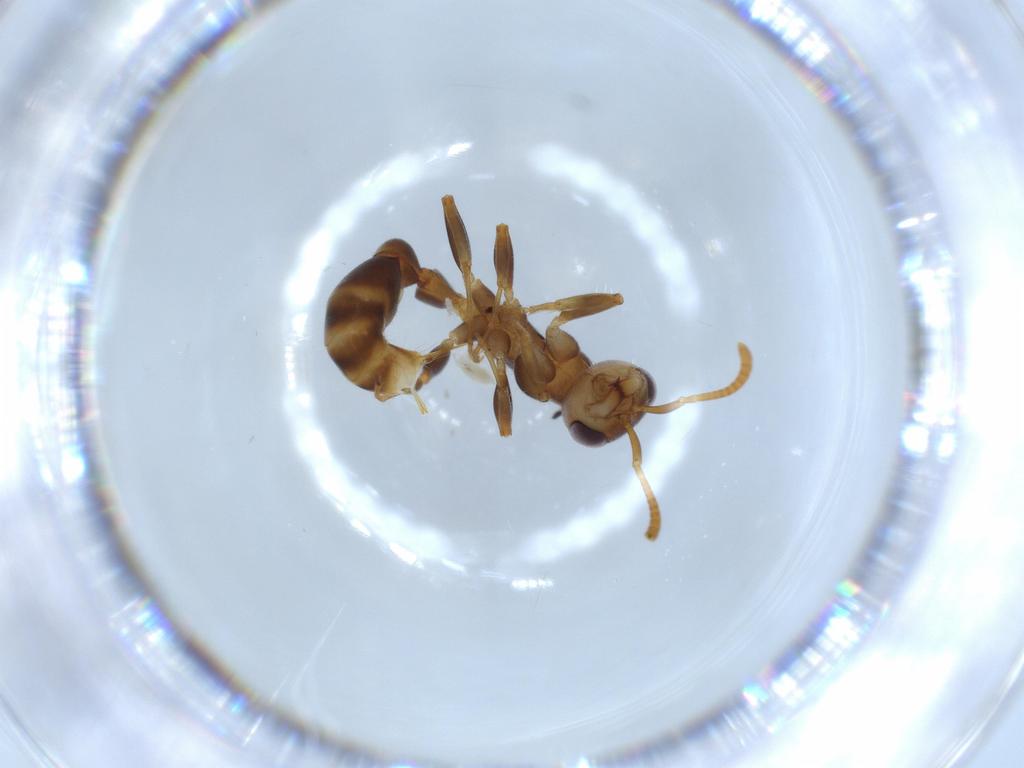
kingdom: Animalia
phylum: Arthropoda
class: Insecta
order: Hymenoptera
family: Formicidae
